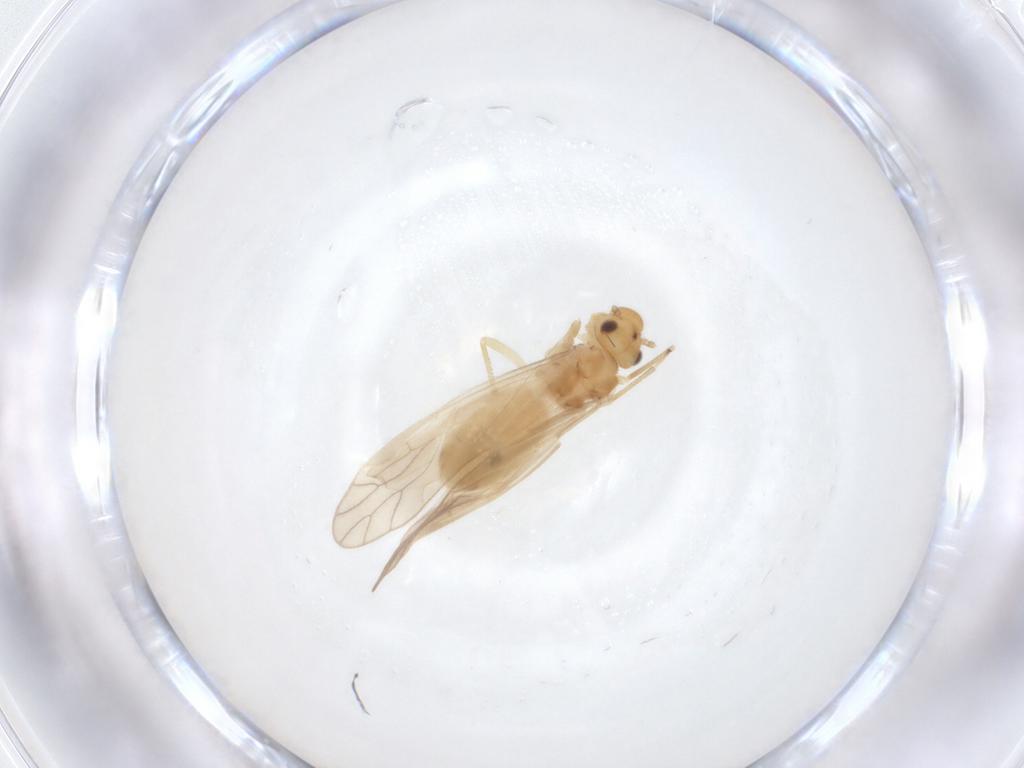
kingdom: Animalia
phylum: Arthropoda
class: Insecta
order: Psocodea
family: Caeciliusidae
